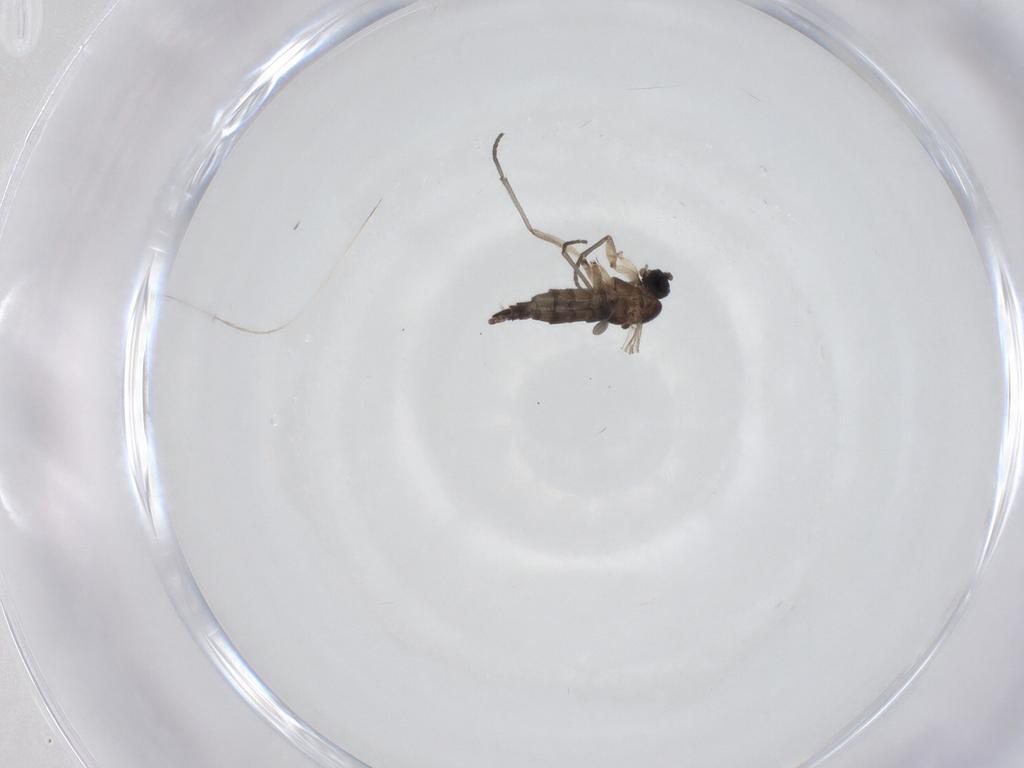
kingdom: Animalia
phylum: Arthropoda
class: Insecta
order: Diptera
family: Sciaridae
